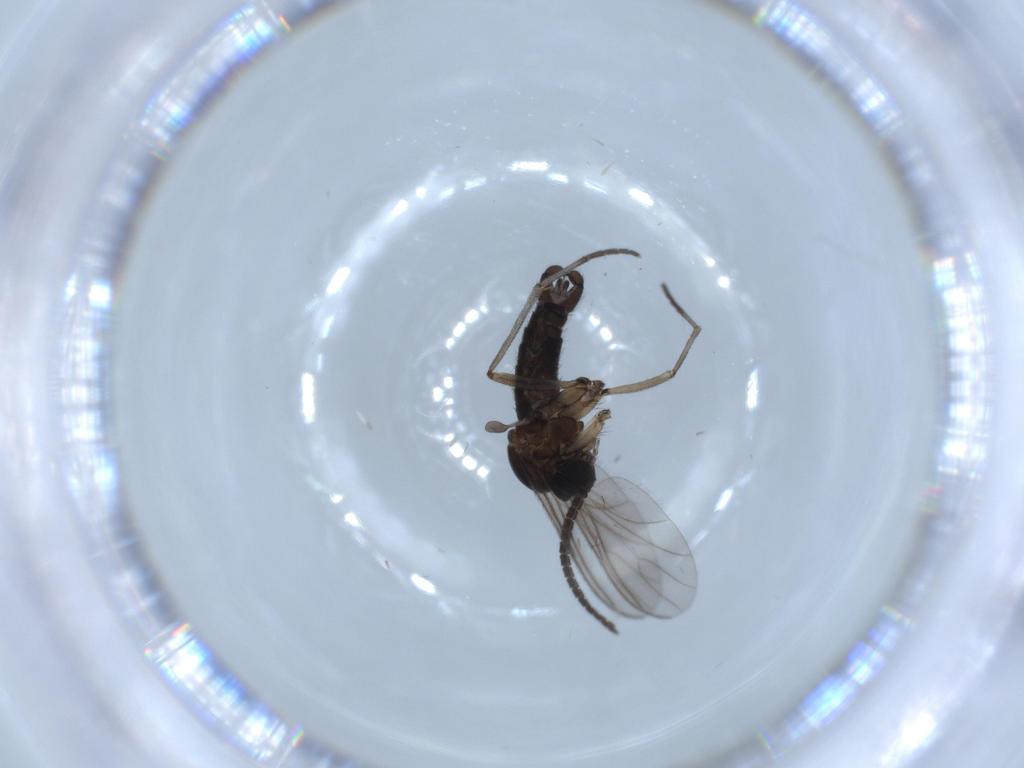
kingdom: Animalia
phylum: Arthropoda
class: Insecta
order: Diptera
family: Sciaridae
